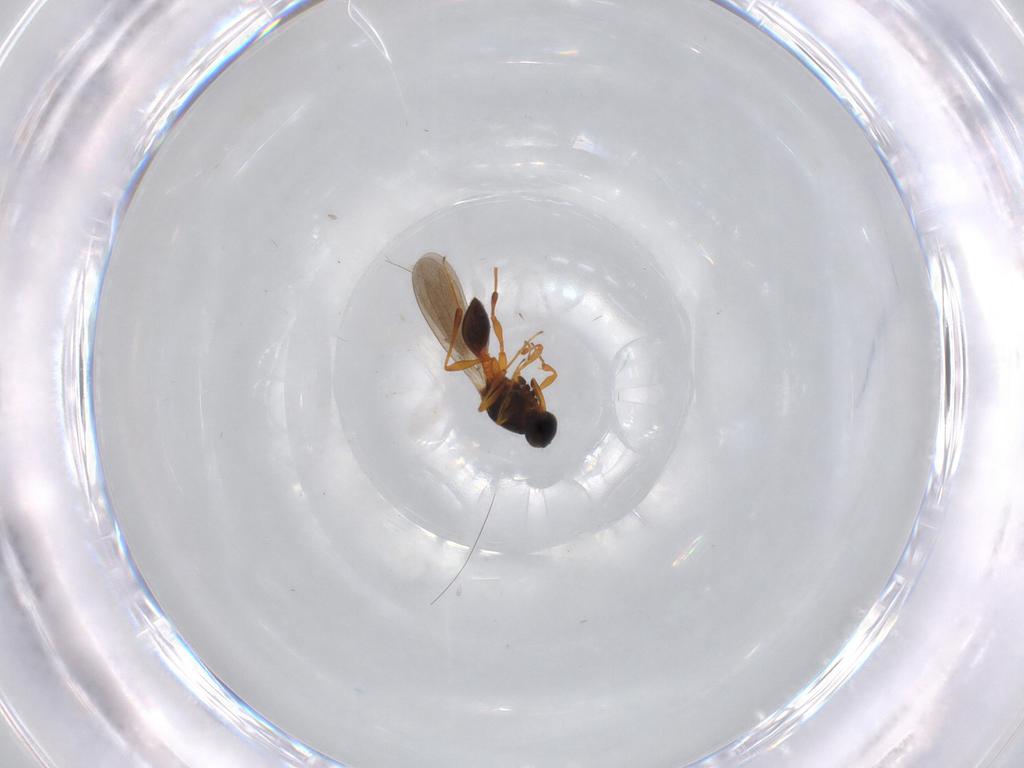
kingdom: Animalia
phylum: Arthropoda
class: Insecta
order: Hymenoptera
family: Platygastridae
